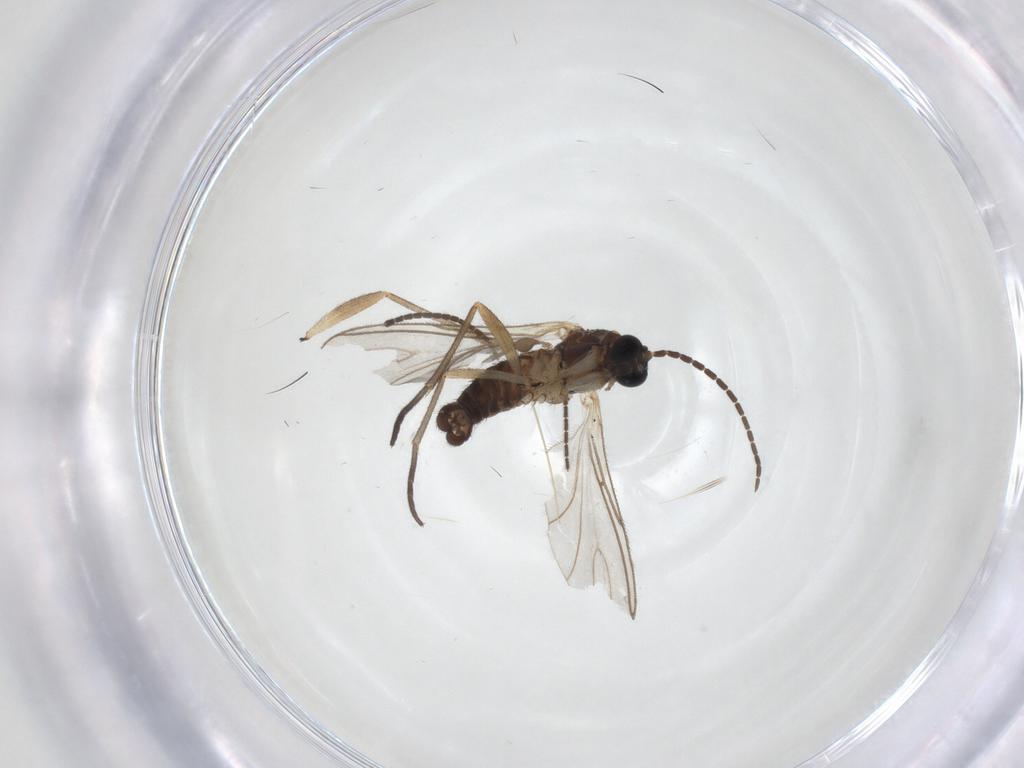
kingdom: Animalia
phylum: Arthropoda
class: Insecta
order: Diptera
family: Sciaridae
